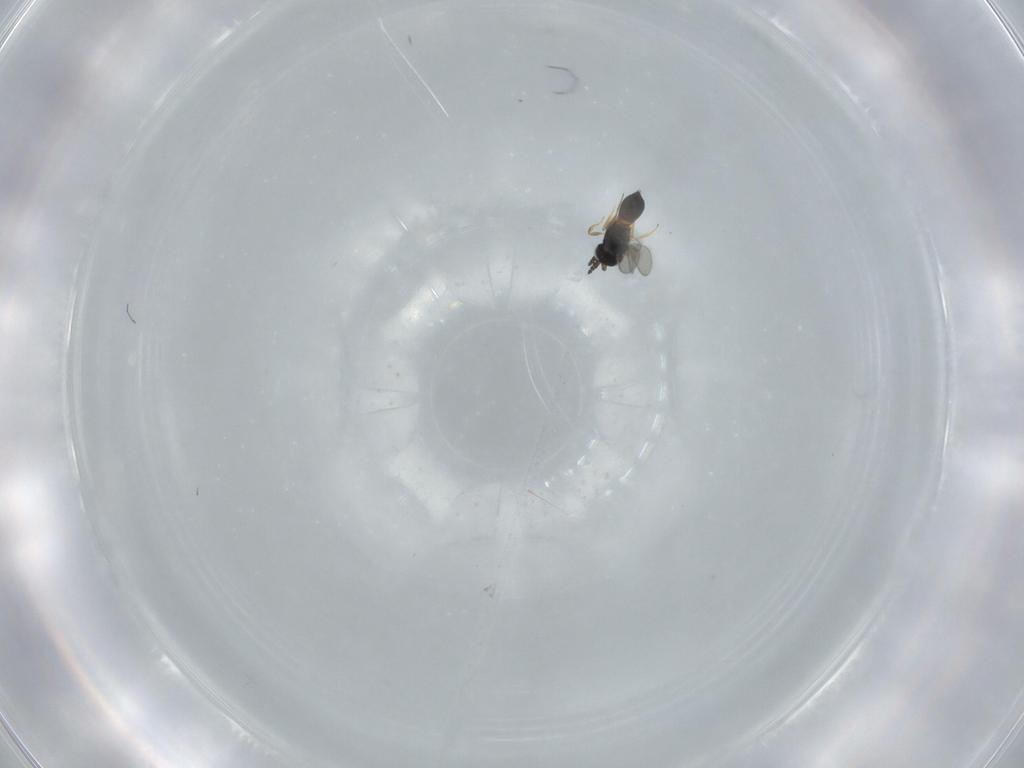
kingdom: Animalia
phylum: Arthropoda
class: Insecta
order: Hymenoptera
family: Scelionidae
